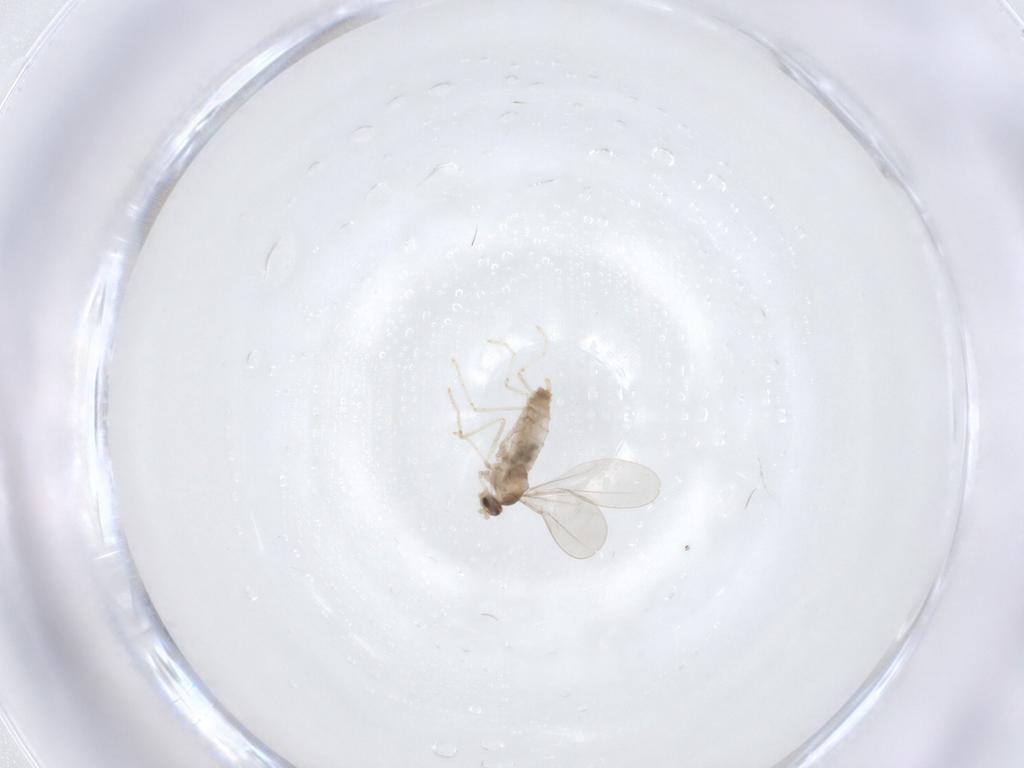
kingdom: Animalia
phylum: Arthropoda
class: Insecta
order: Diptera
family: Cecidomyiidae
